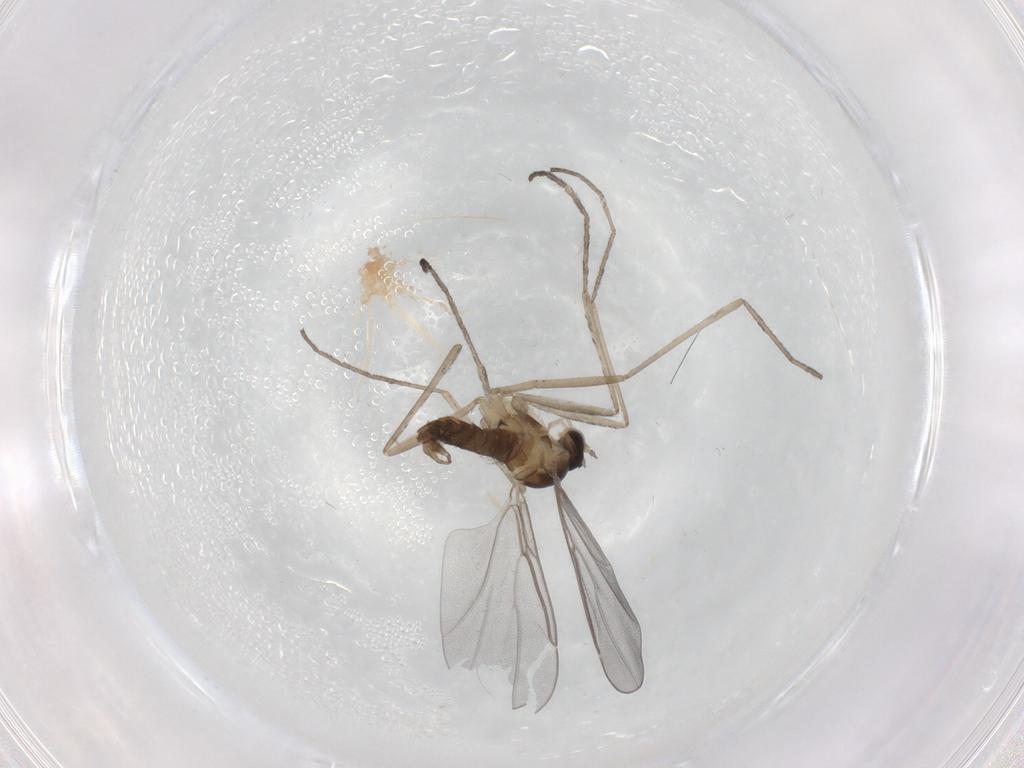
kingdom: Animalia
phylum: Arthropoda
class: Insecta
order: Diptera
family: Cecidomyiidae
